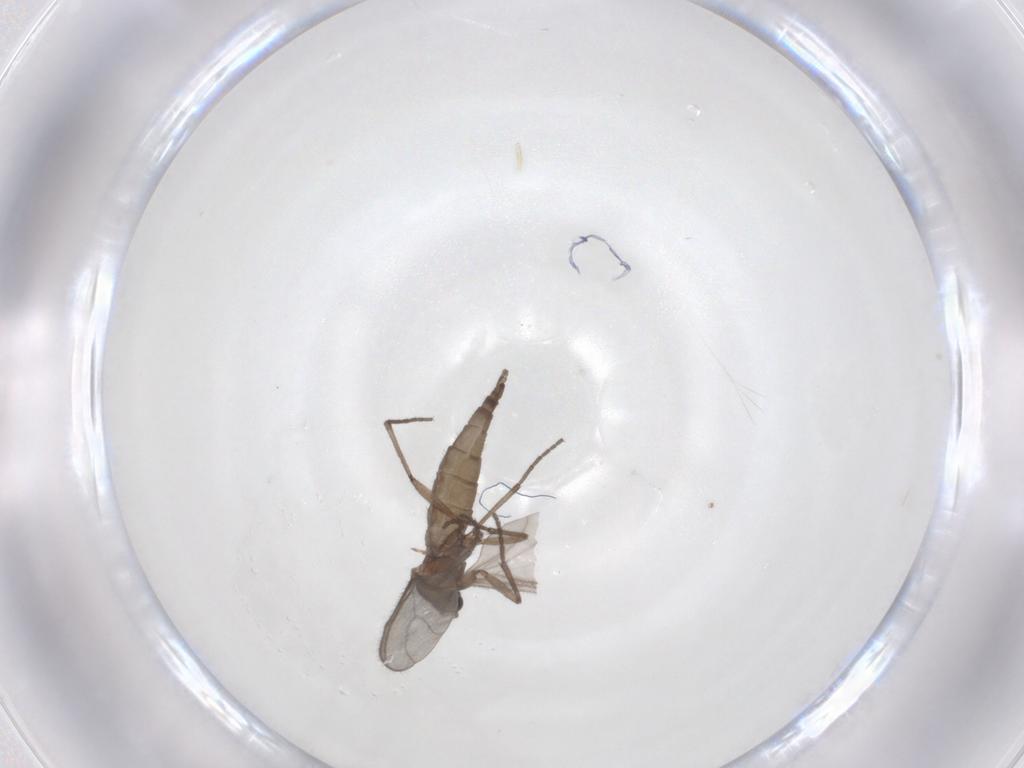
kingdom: Animalia
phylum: Arthropoda
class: Insecta
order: Diptera
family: Sciaridae
